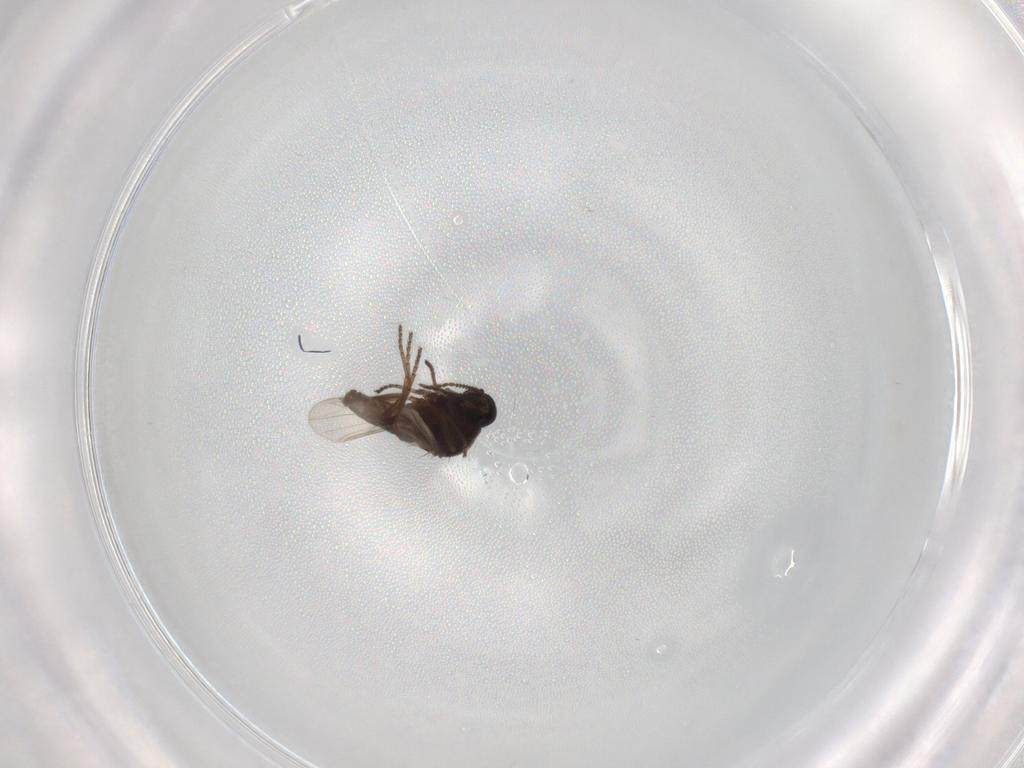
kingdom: Animalia
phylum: Arthropoda
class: Insecta
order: Diptera
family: Ceratopogonidae
